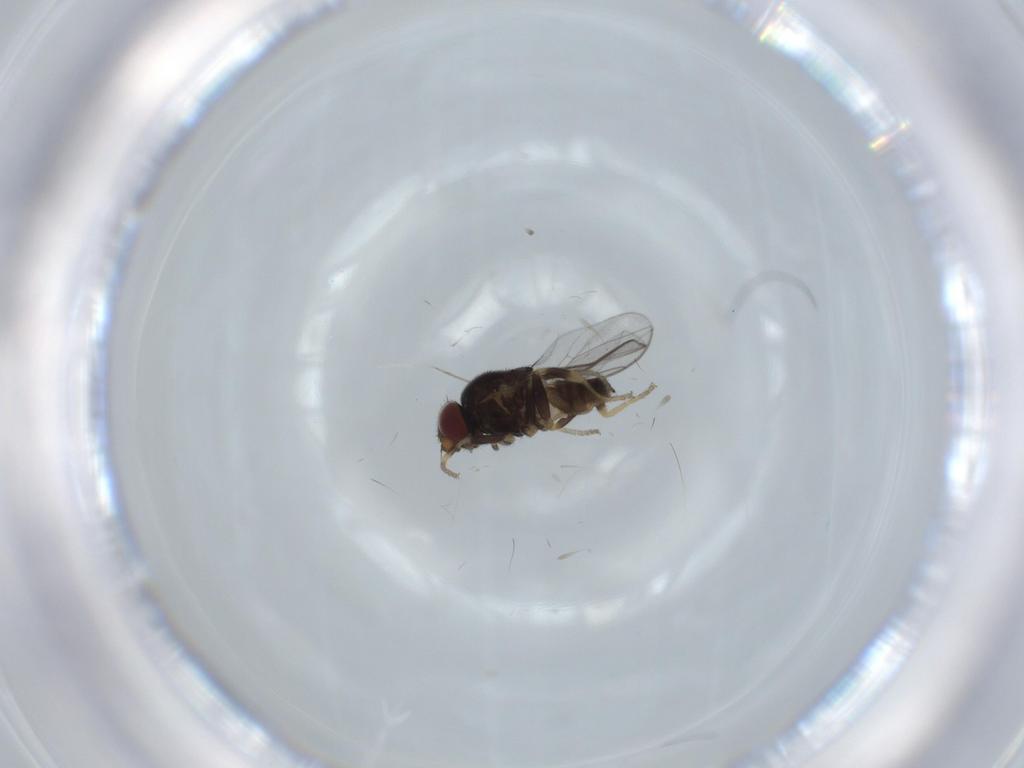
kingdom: Animalia
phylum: Arthropoda
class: Insecta
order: Diptera
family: Chloropidae
